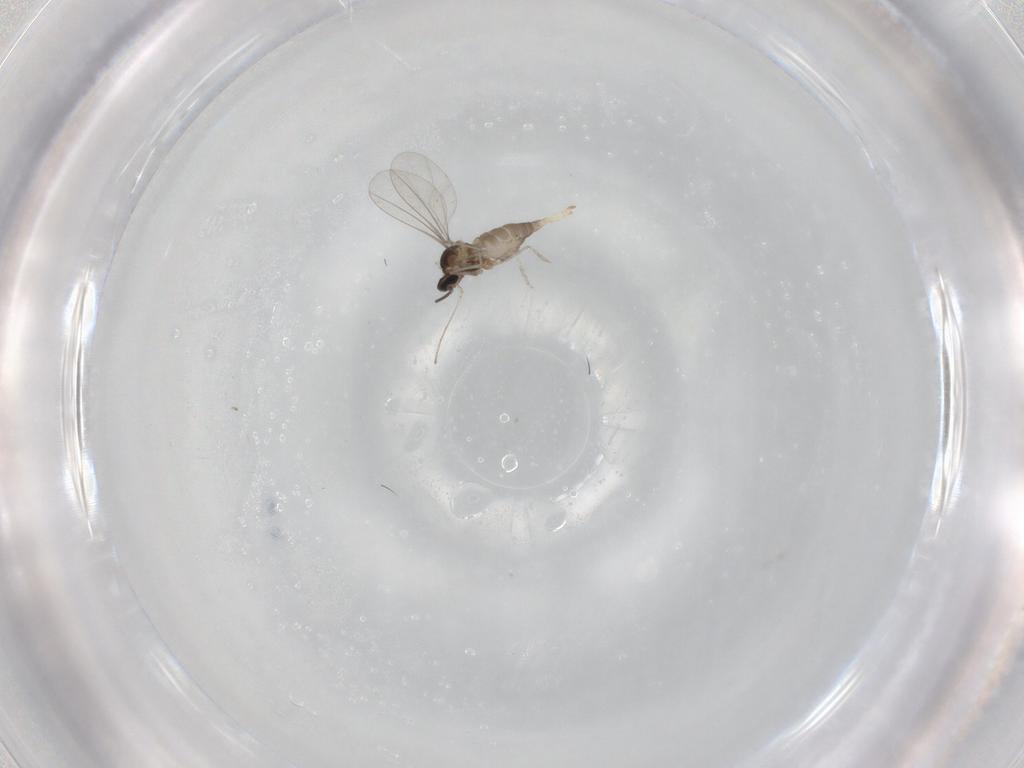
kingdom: Animalia
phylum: Arthropoda
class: Insecta
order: Diptera
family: Cecidomyiidae
